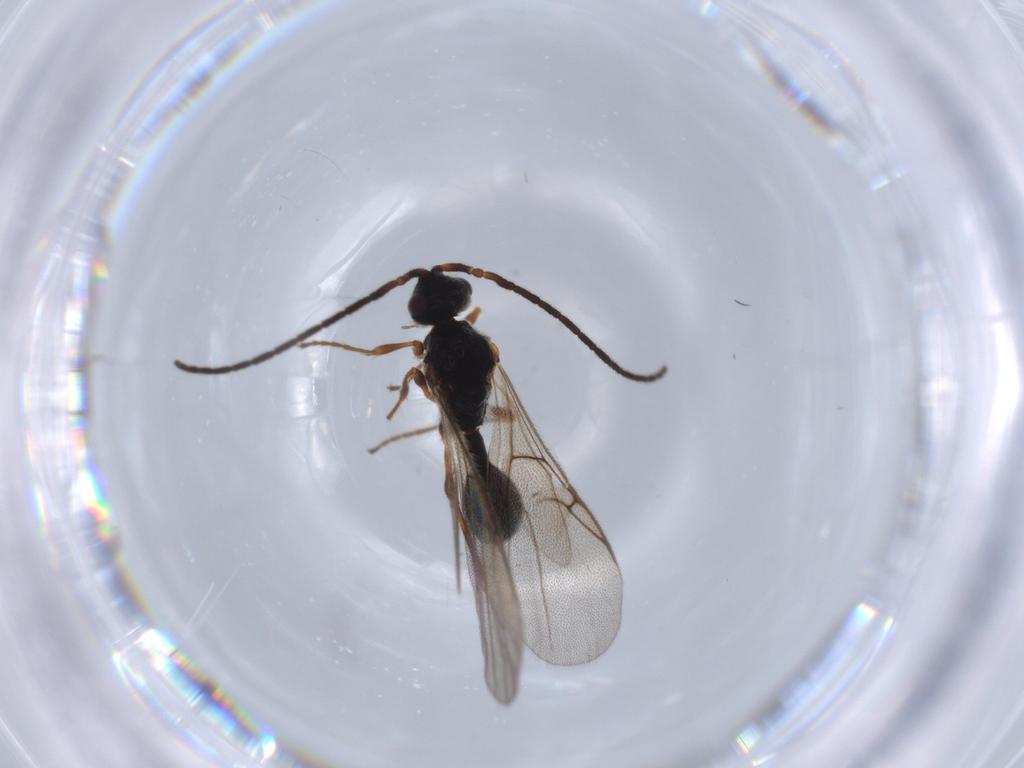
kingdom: Animalia
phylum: Arthropoda
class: Insecta
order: Hymenoptera
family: Diapriidae
